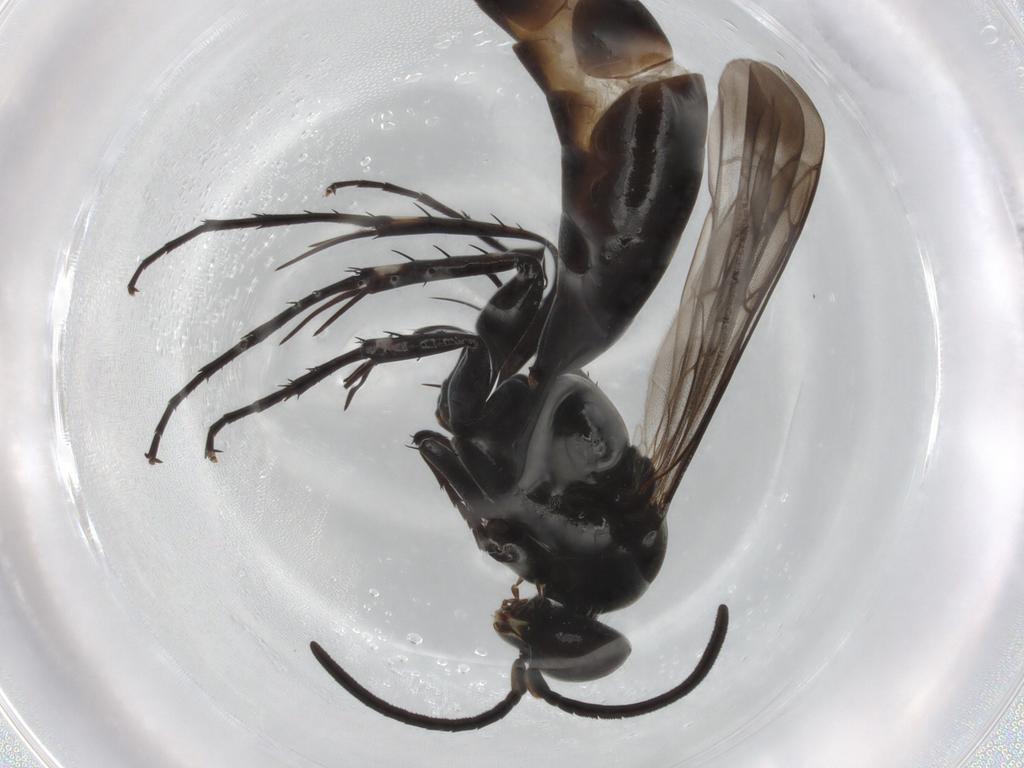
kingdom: Animalia
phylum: Arthropoda
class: Insecta
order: Hymenoptera
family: Pompilidae
